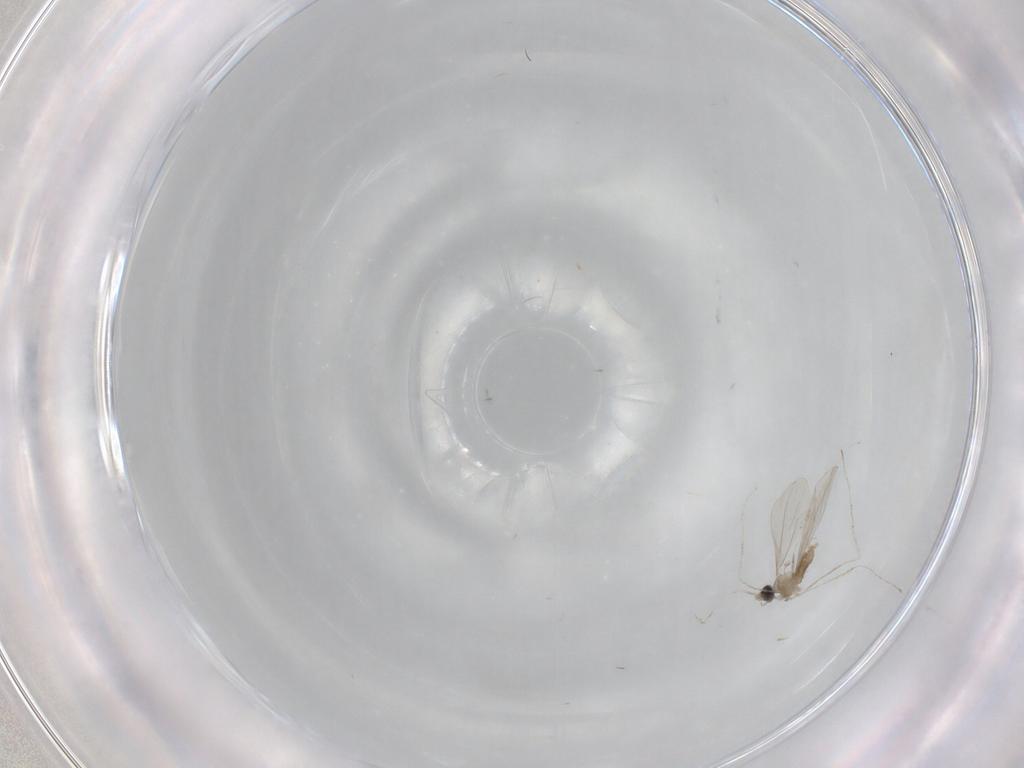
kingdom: Animalia
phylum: Arthropoda
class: Insecta
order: Diptera
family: Cecidomyiidae
